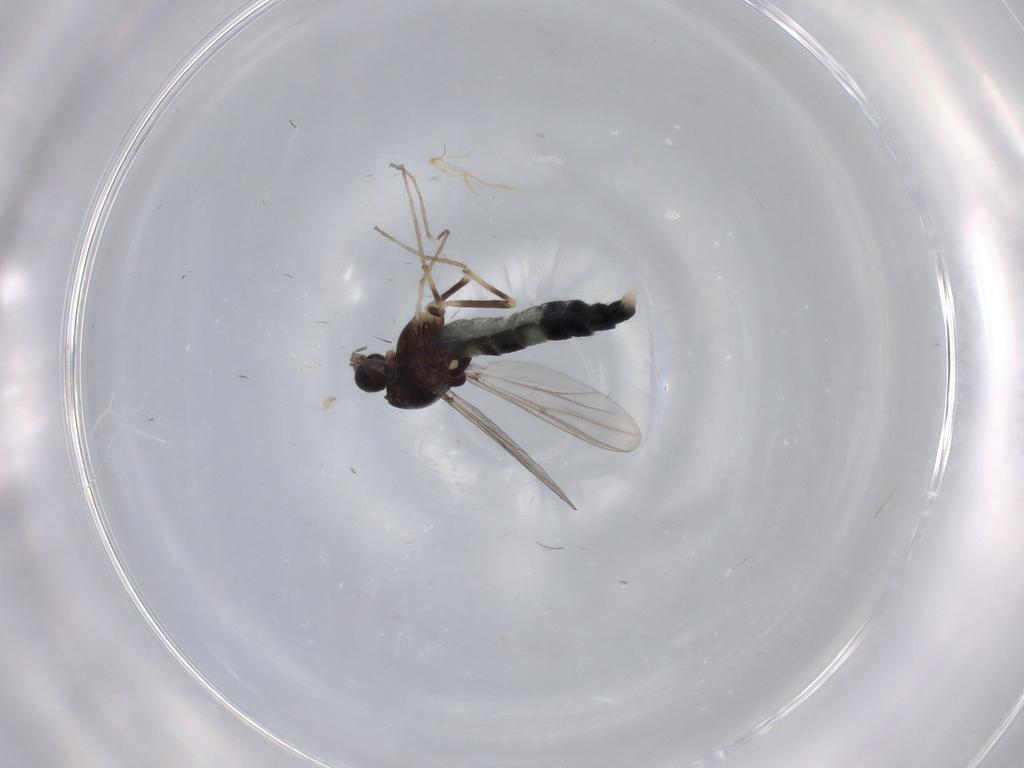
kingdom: Animalia
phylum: Arthropoda
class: Insecta
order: Diptera
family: Chironomidae
